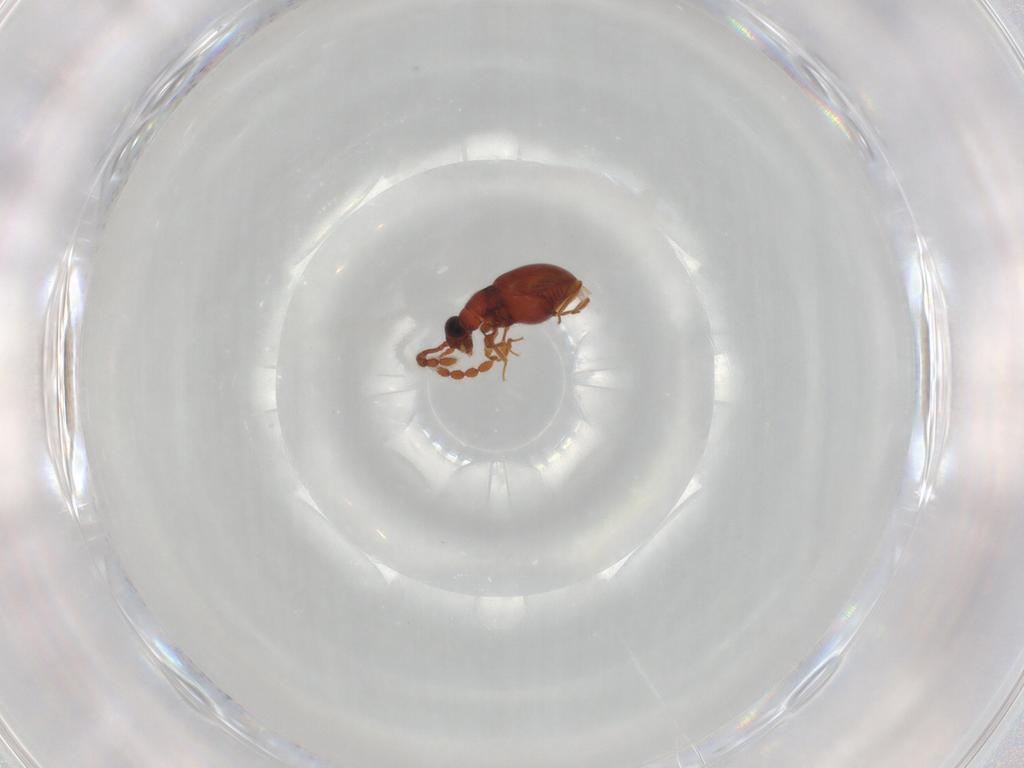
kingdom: Animalia
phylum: Arthropoda
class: Insecta
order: Coleoptera
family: Staphylinidae
